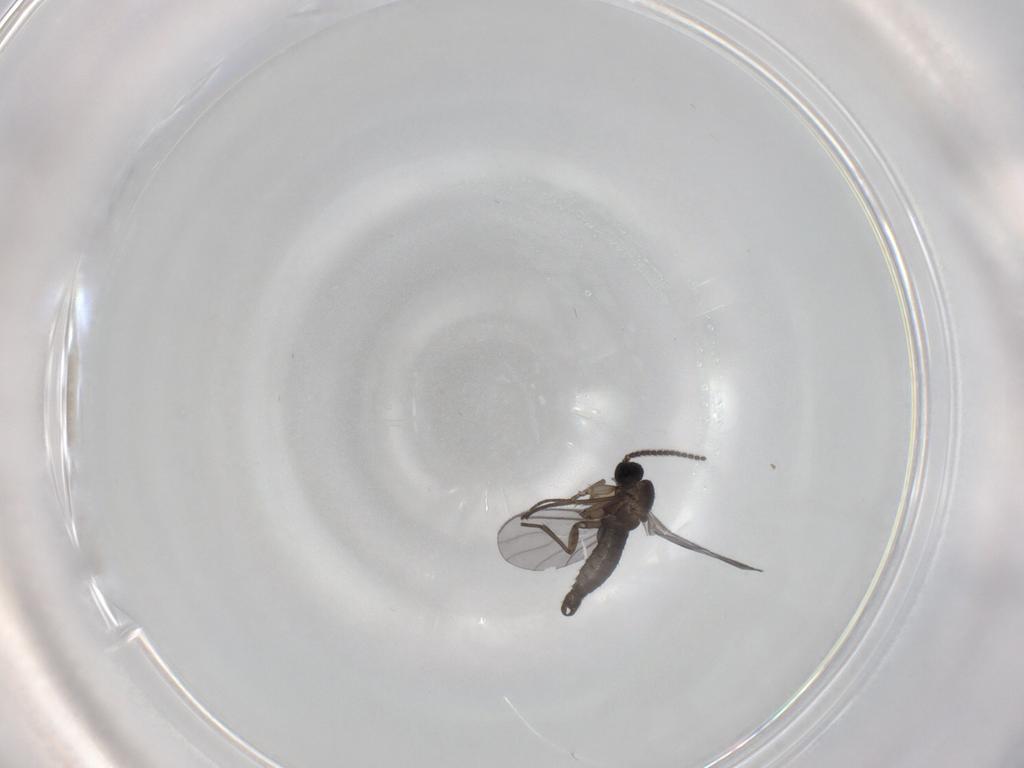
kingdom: Animalia
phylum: Arthropoda
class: Insecta
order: Diptera
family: Sciaridae
